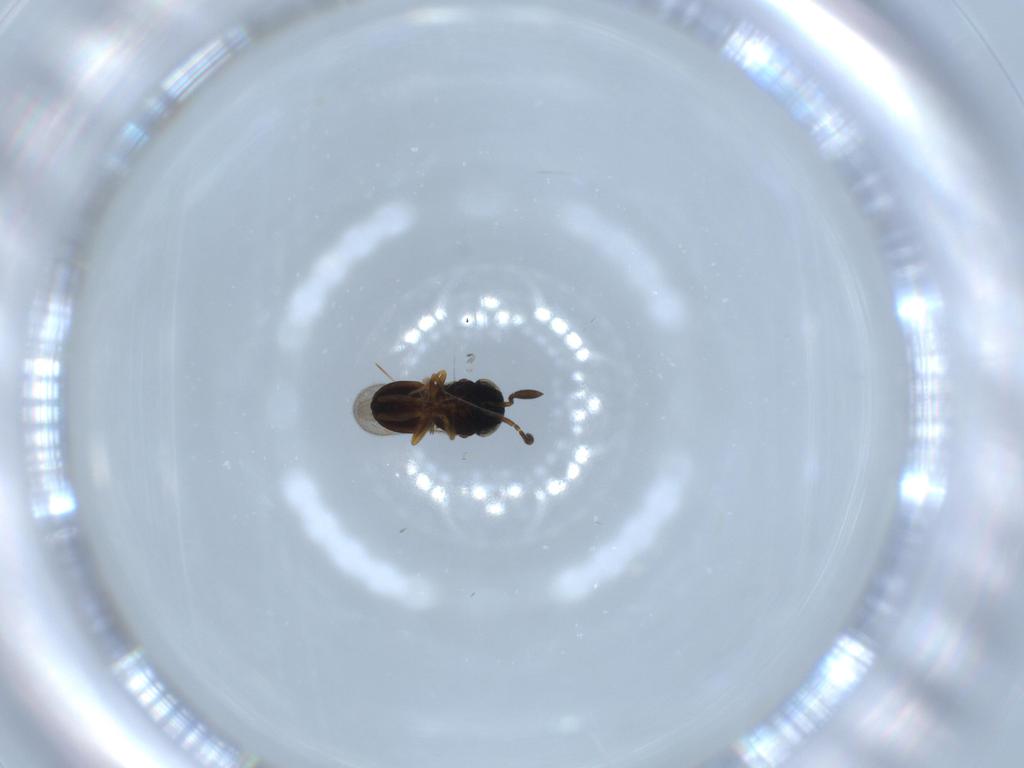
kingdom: Animalia
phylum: Arthropoda
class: Insecta
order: Hymenoptera
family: Scelionidae
